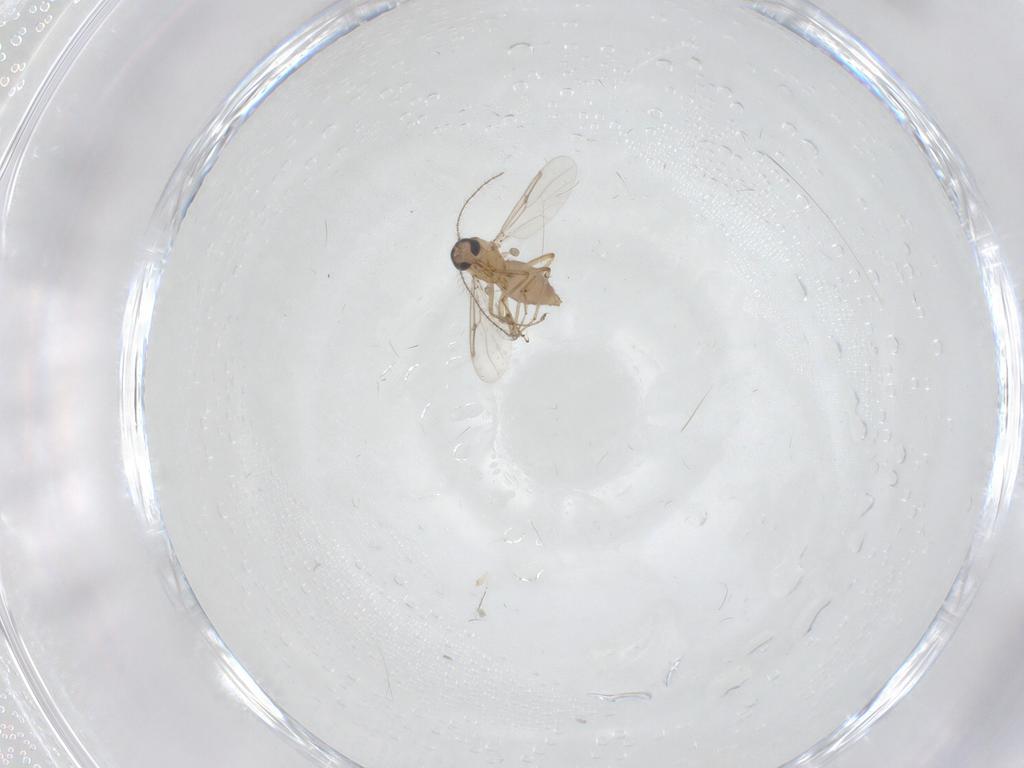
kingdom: Animalia
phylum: Arthropoda
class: Insecta
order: Diptera
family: Ceratopogonidae
